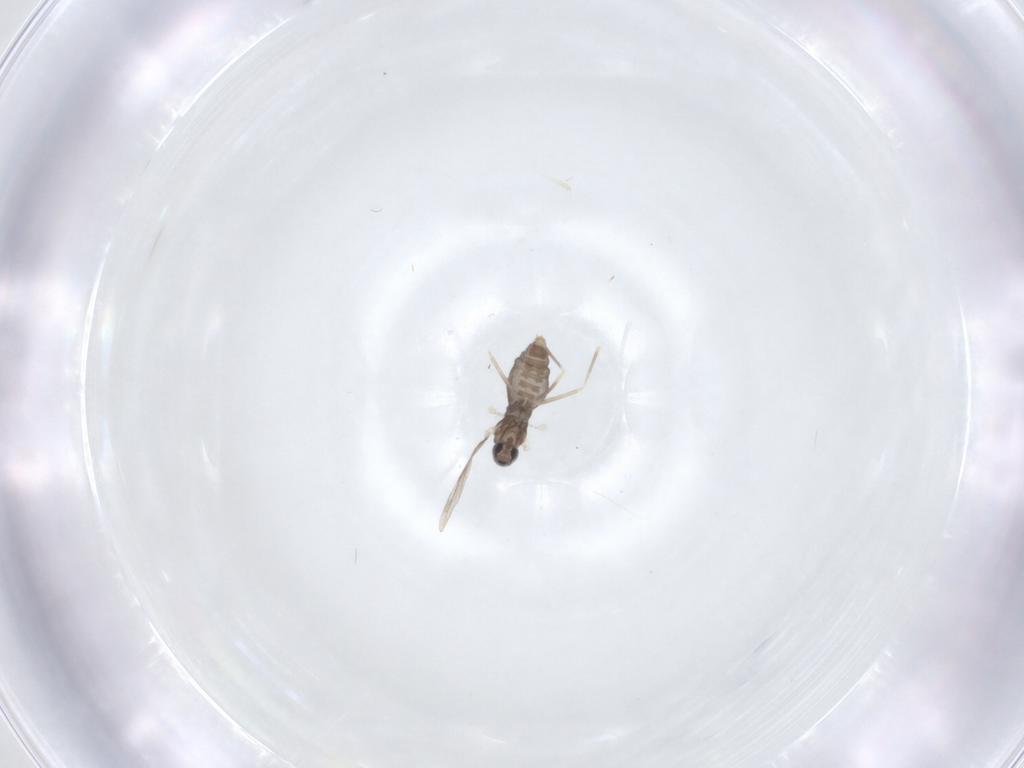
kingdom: Animalia
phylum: Arthropoda
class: Insecta
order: Diptera
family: Cecidomyiidae
